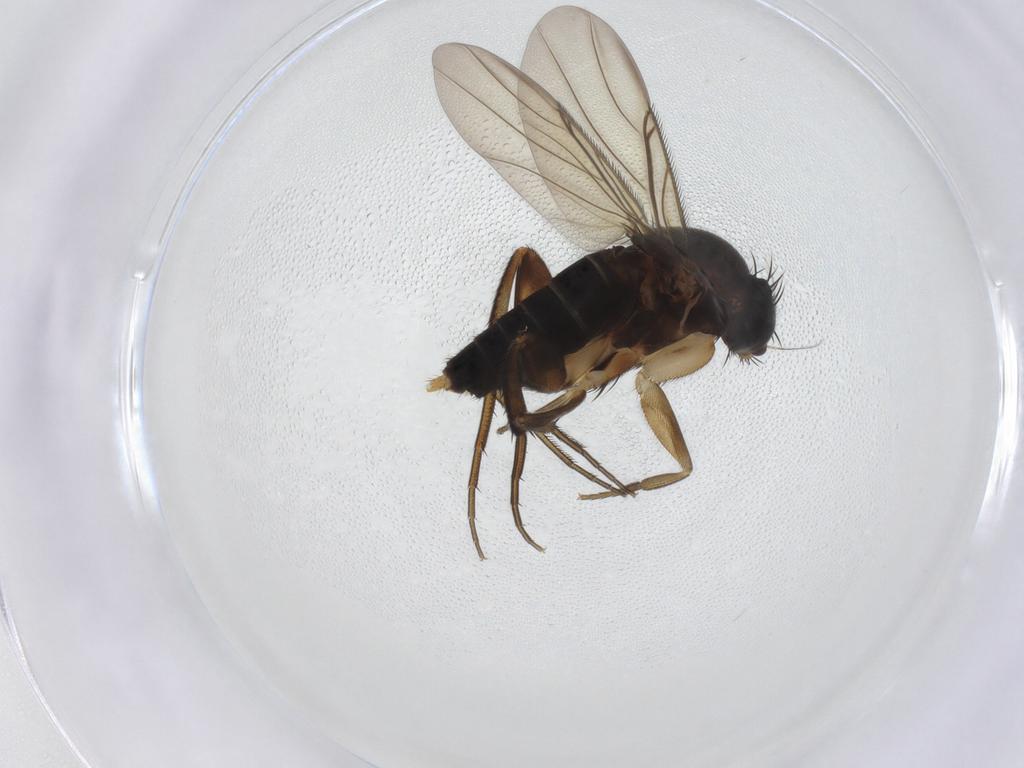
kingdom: Animalia
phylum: Arthropoda
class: Insecta
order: Diptera
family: Phoridae
